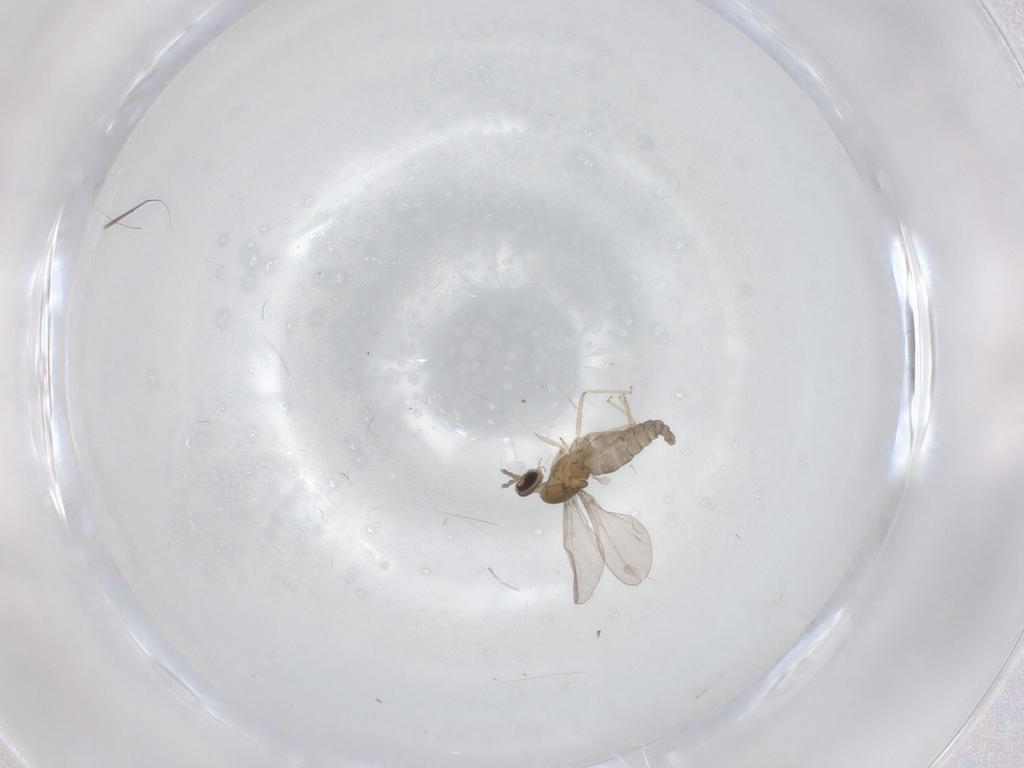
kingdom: Animalia
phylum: Arthropoda
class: Insecta
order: Diptera
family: Cecidomyiidae
